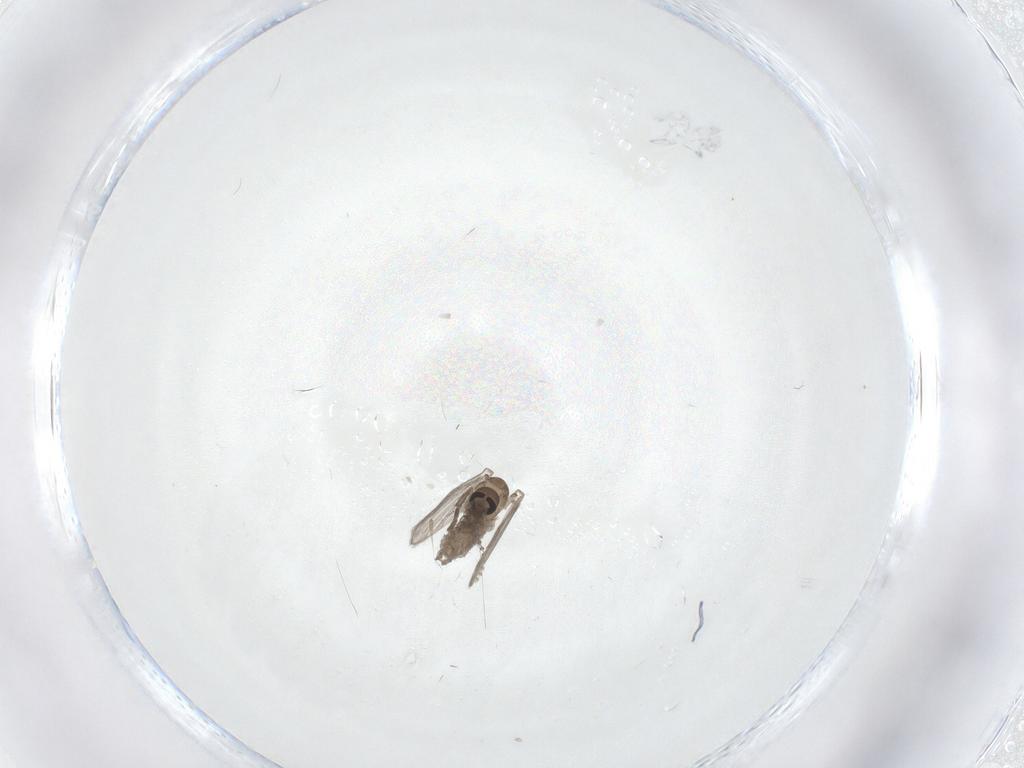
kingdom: Animalia
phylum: Arthropoda
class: Insecta
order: Diptera
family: Psychodidae
